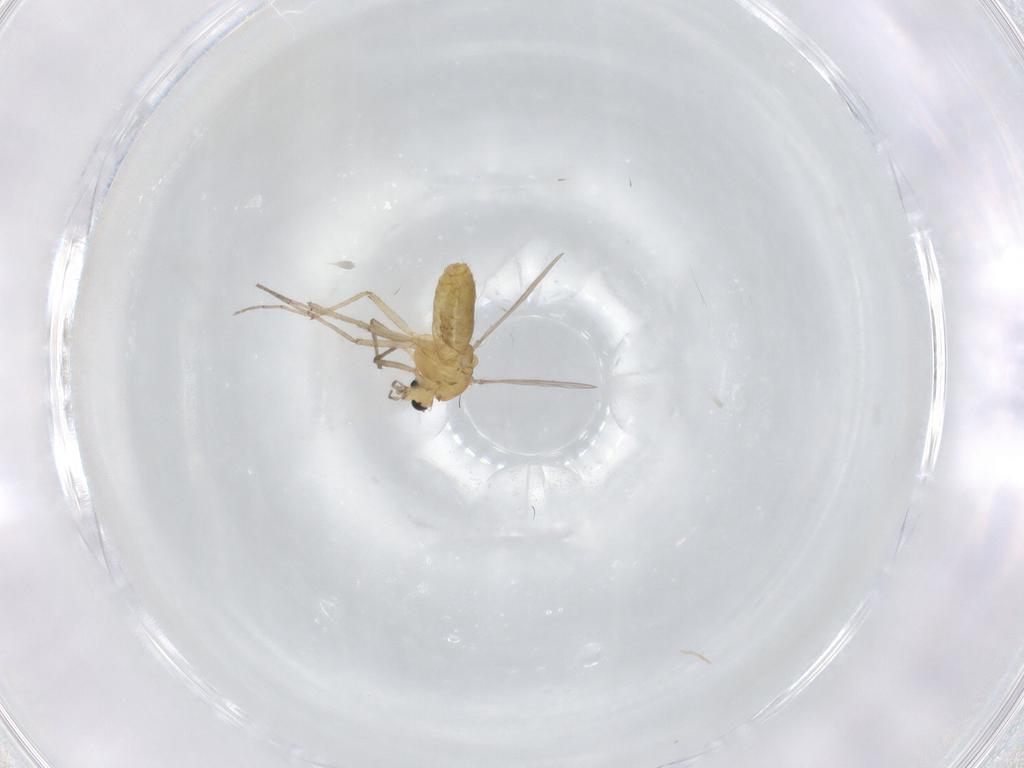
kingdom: Animalia
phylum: Arthropoda
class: Insecta
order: Diptera
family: Chironomidae
